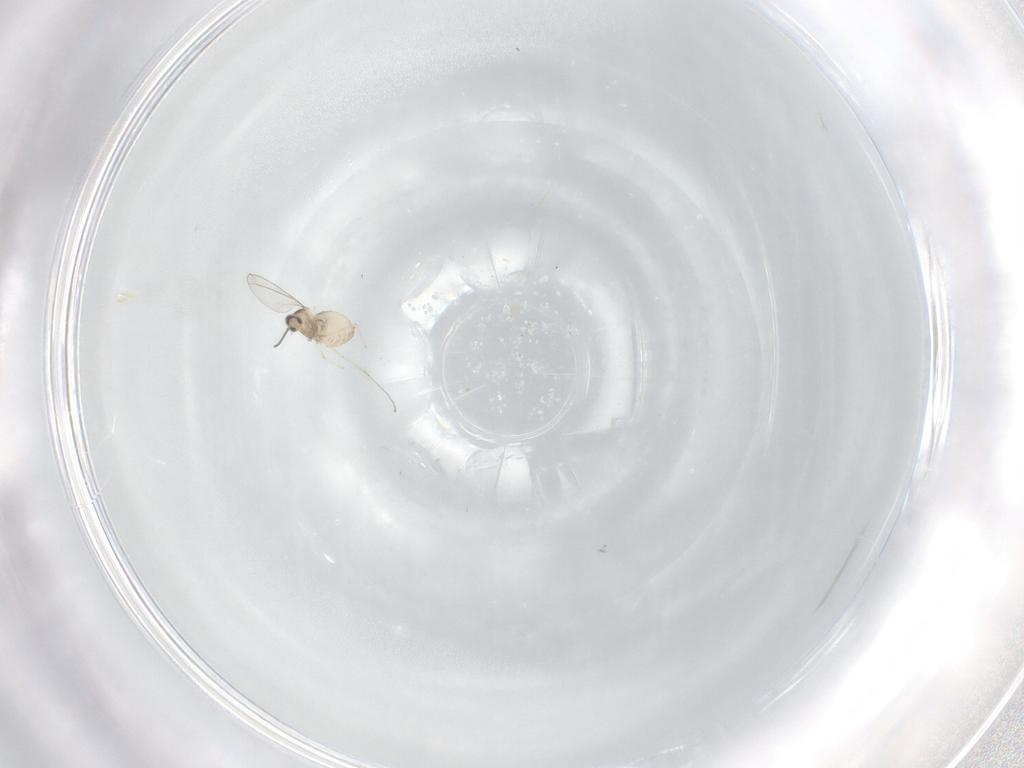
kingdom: Animalia
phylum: Arthropoda
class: Insecta
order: Diptera
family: Cecidomyiidae
